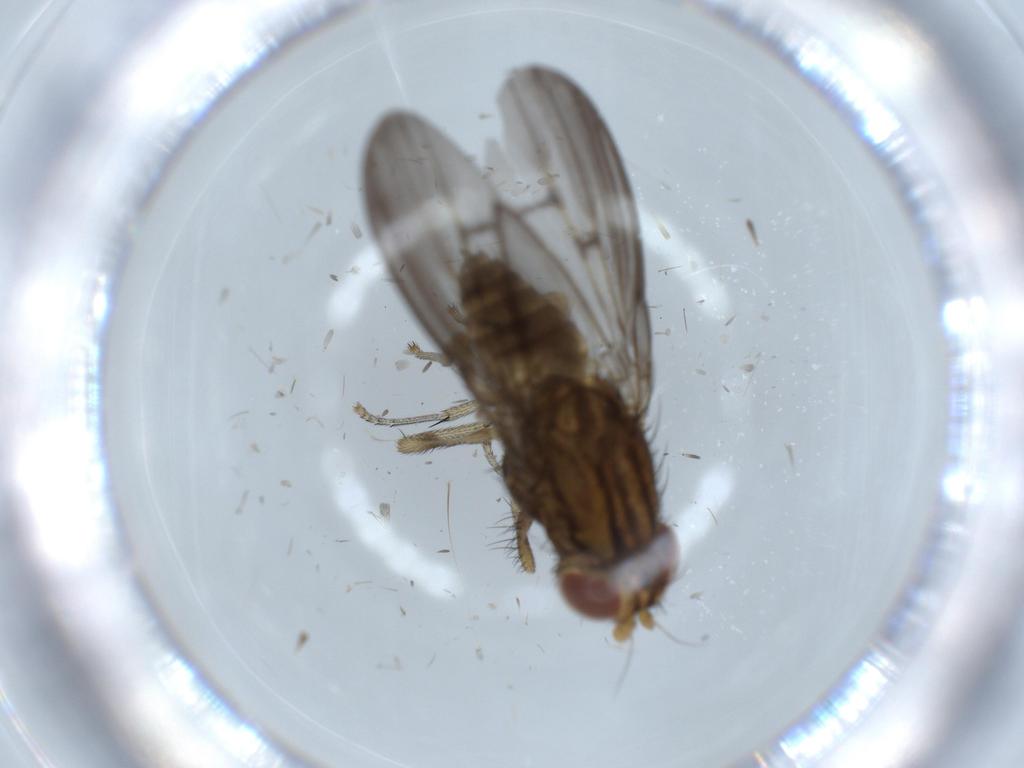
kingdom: Animalia
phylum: Arthropoda
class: Insecta
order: Diptera
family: Lauxaniidae
